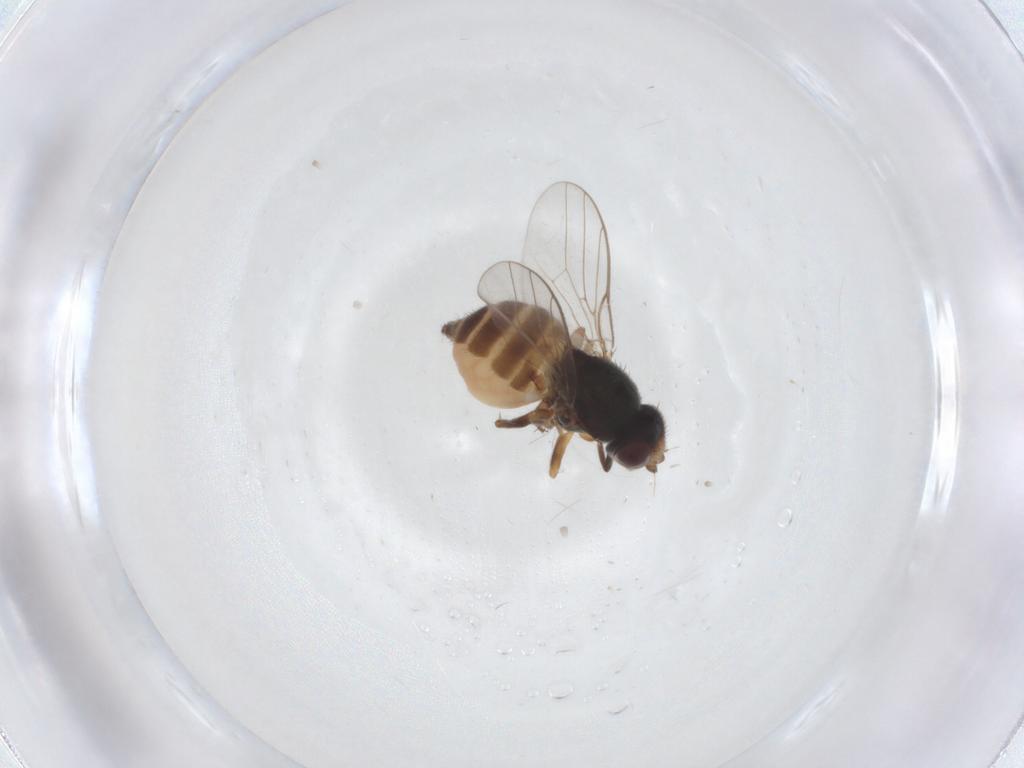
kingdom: Animalia
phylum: Arthropoda
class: Insecta
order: Diptera
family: Chloropidae
